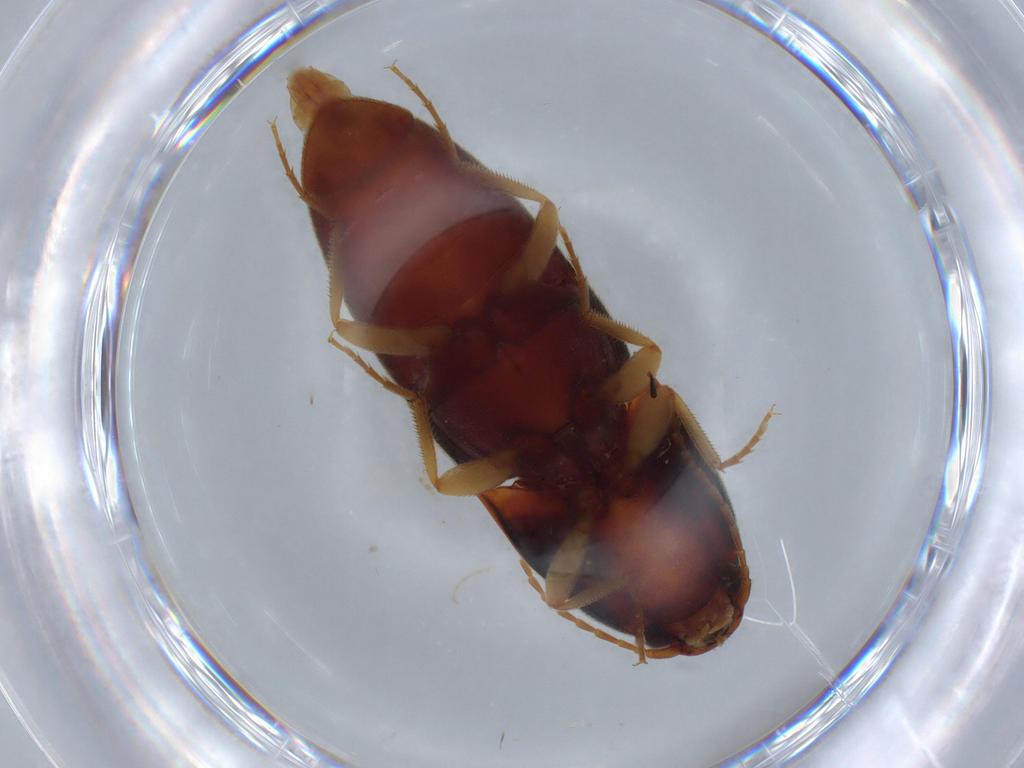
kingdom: Animalia
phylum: Arthropoda
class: Insecta
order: Coleoptera
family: Elateridae
